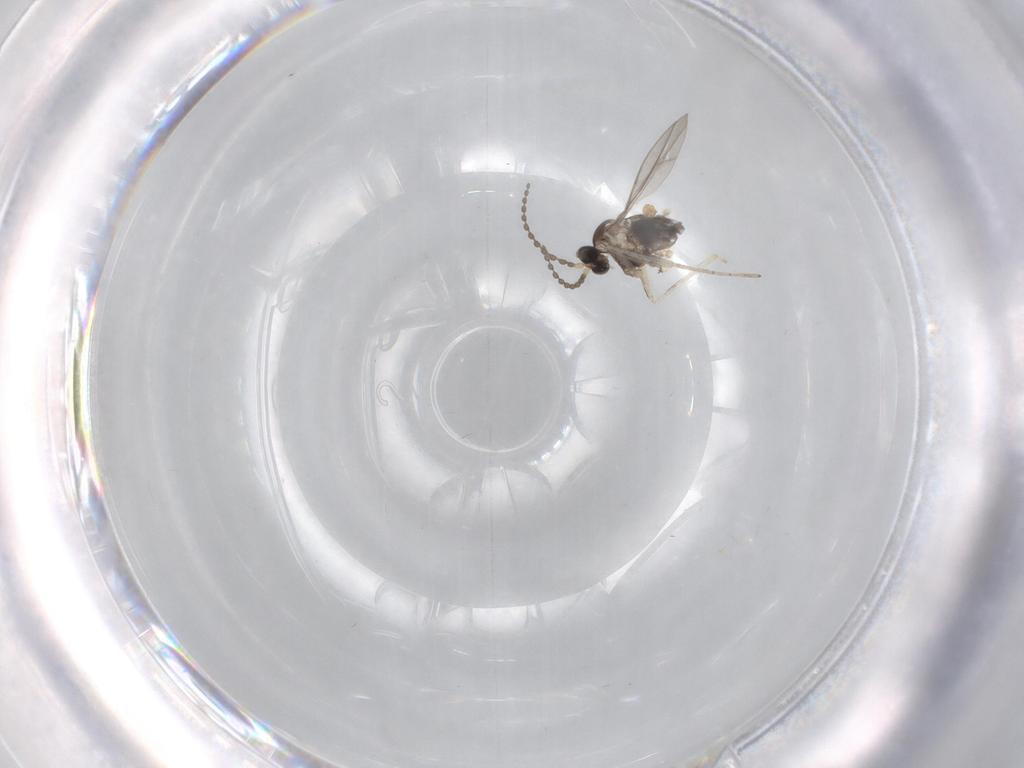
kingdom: Animalia
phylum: Arthropoda
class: Insecta
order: Diptera
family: Cecidomyiidae
